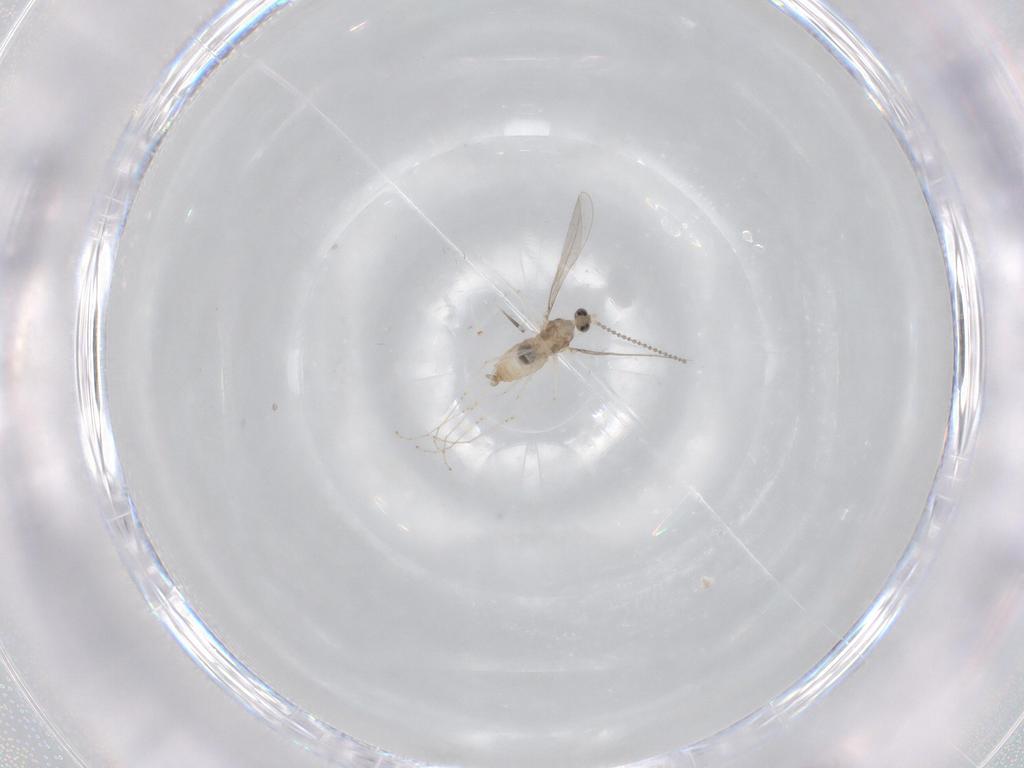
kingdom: Animalia
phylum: Arthropoda
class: Insecta
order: Diptera
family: Cecidomyiidae
